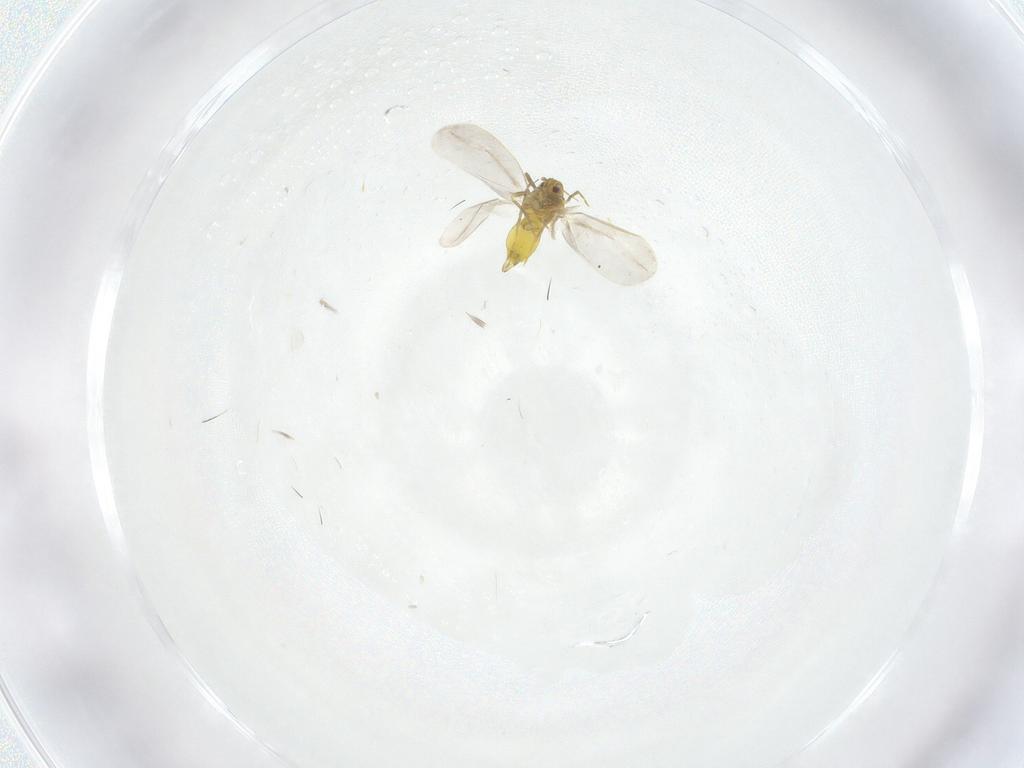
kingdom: Animalia
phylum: Arthropoda
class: Insecta
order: Hemiptera
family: Aleyrodidae
